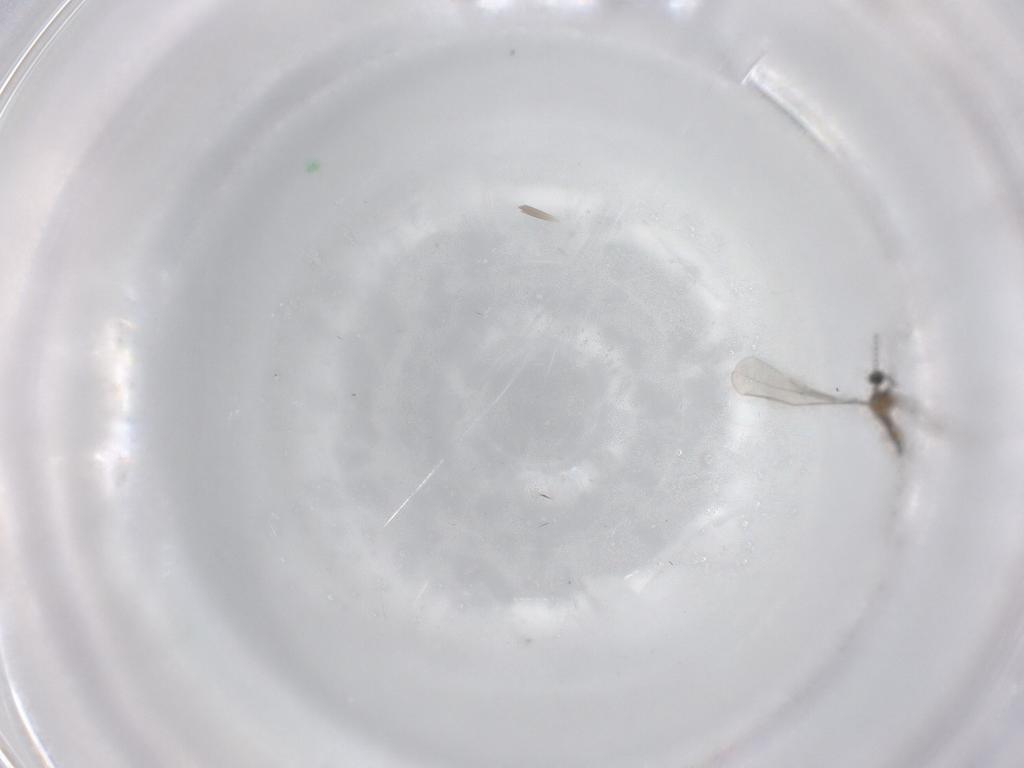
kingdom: Animalia
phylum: Arthropoda
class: Insecta
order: Diptera
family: Cecidomyiidae
